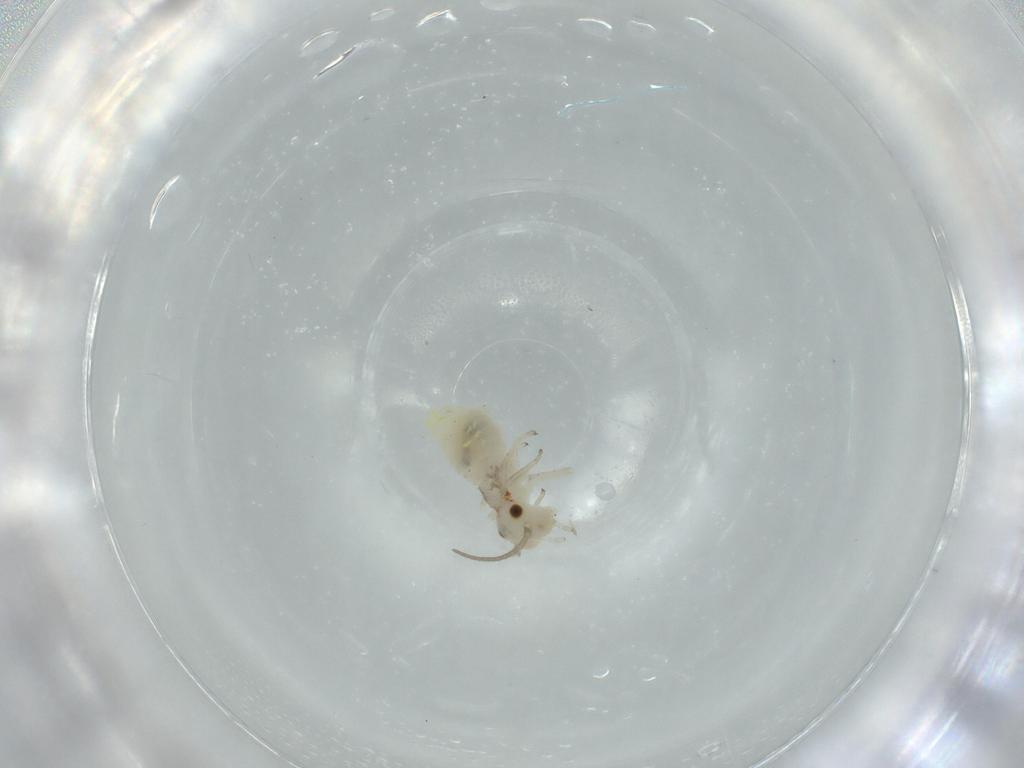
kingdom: Animalia
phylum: Arthropoda
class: Insecta
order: Psocodea
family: Caeciliusidae
